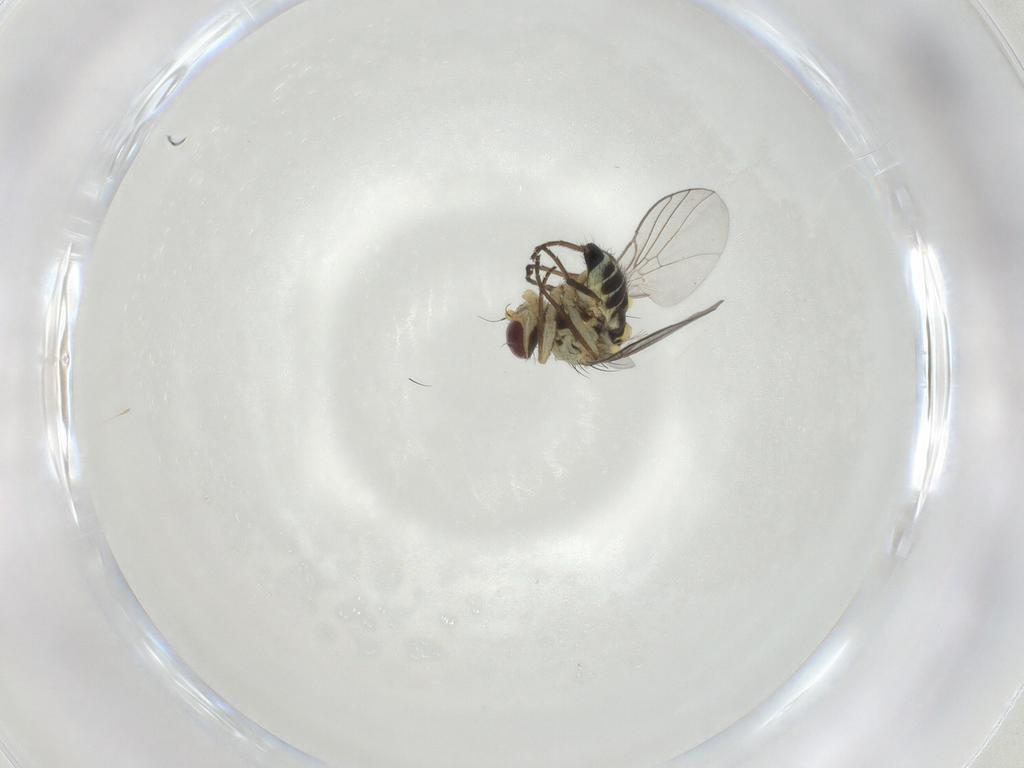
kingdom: Animalia
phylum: Arthropoda
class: Insecta
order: Diptera
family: Agromyzidae
